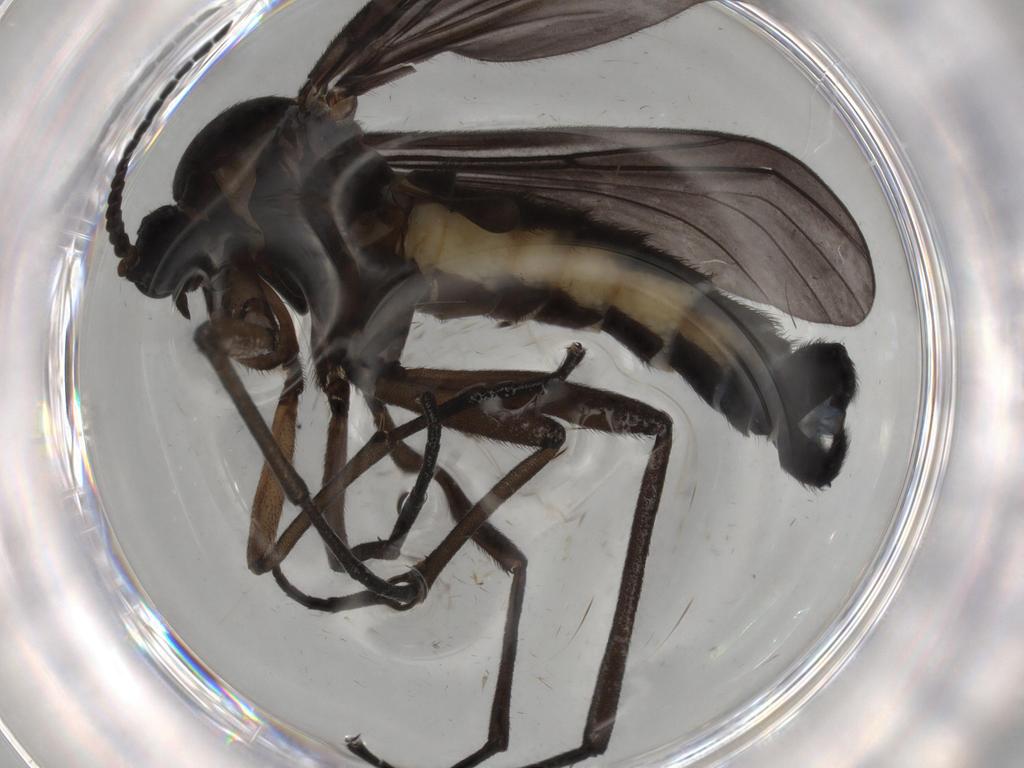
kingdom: Animalia
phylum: Arthropoda
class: Insecta
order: Diptera
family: Sciaridae
